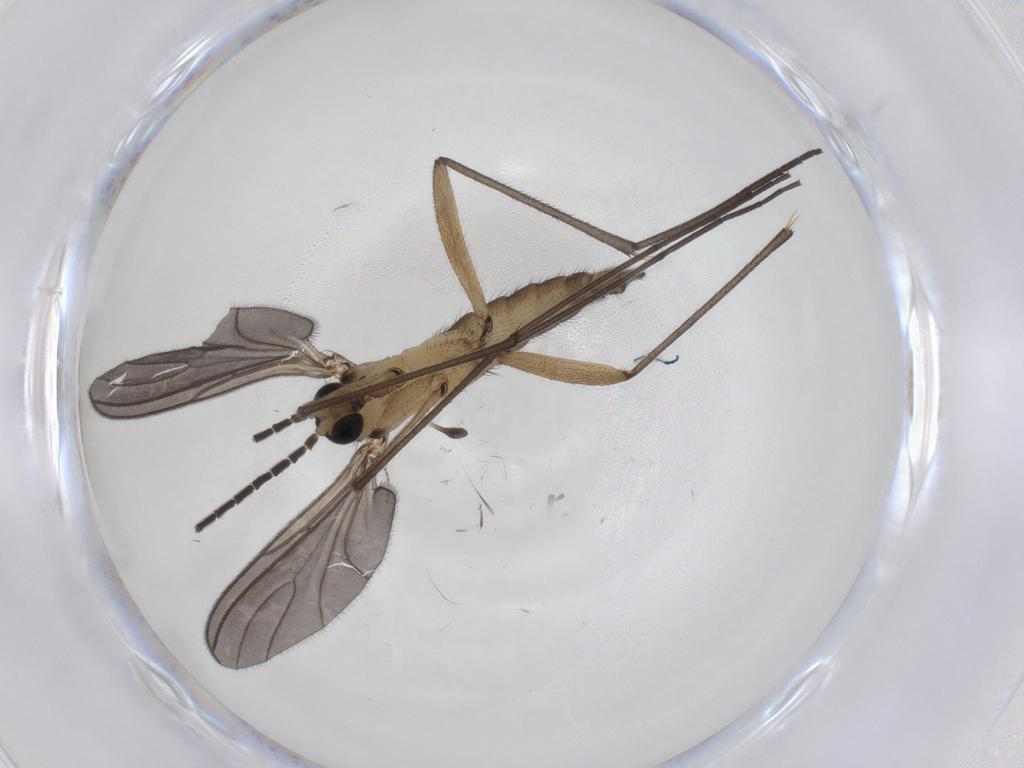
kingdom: Animalia
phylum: Arthropoda
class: Insecta
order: Diptera
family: Sciaridae
